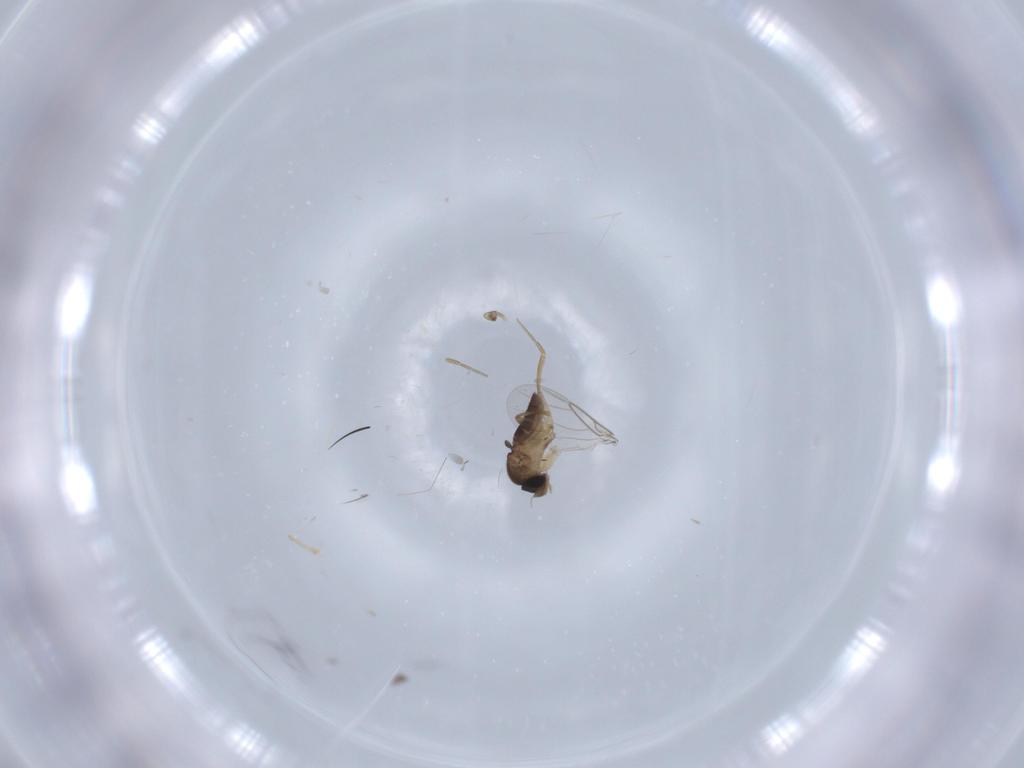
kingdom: Animalia
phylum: Arthropoda
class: Insecta
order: Diptera
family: Phoridae
